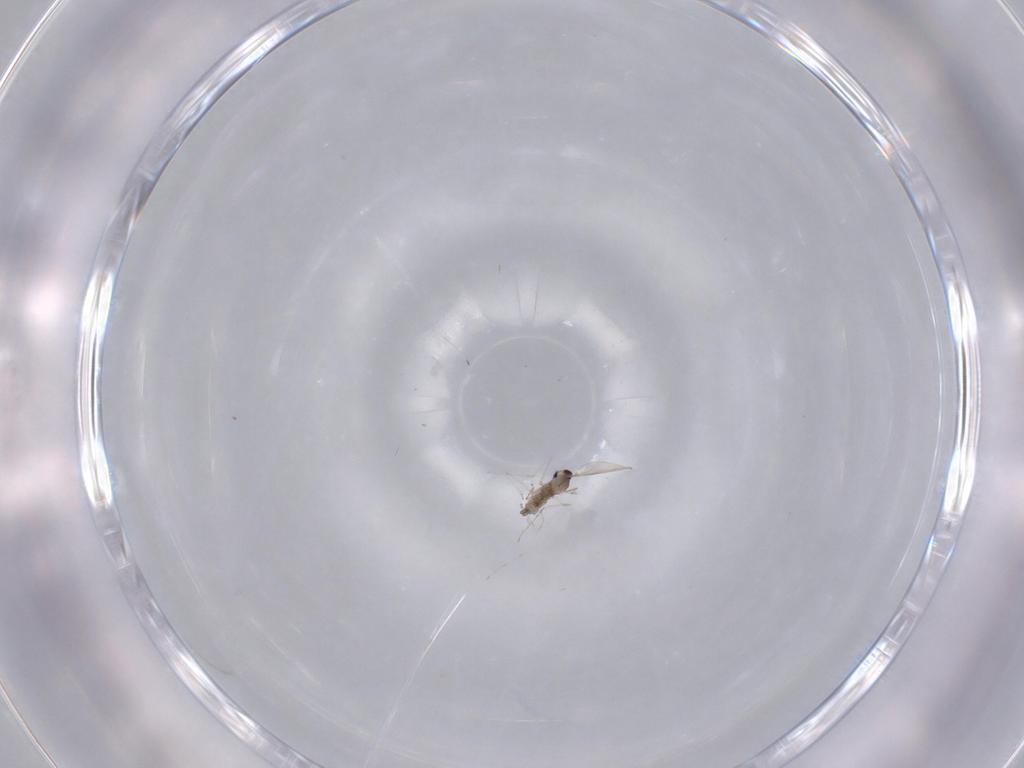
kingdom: Animalia
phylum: Arthropoda
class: Insecta
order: Diptera
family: Cecidomyiidae
